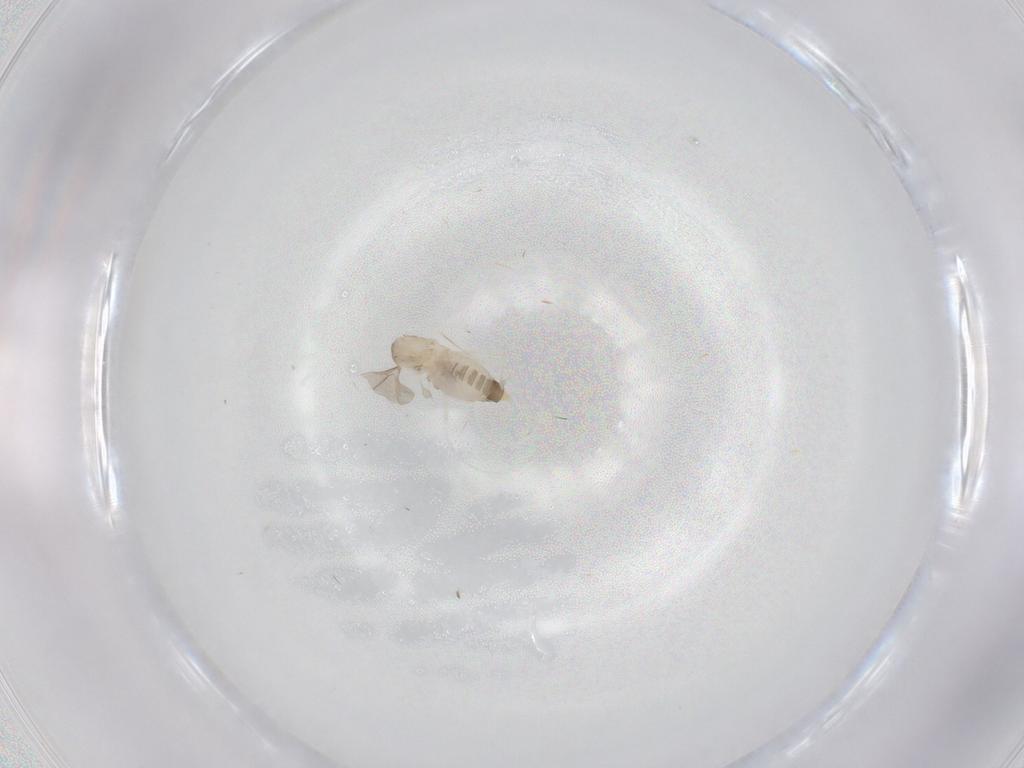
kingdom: Animalia
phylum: Arthropoda
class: Insecta
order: Diptera
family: Cecidomyiidae
